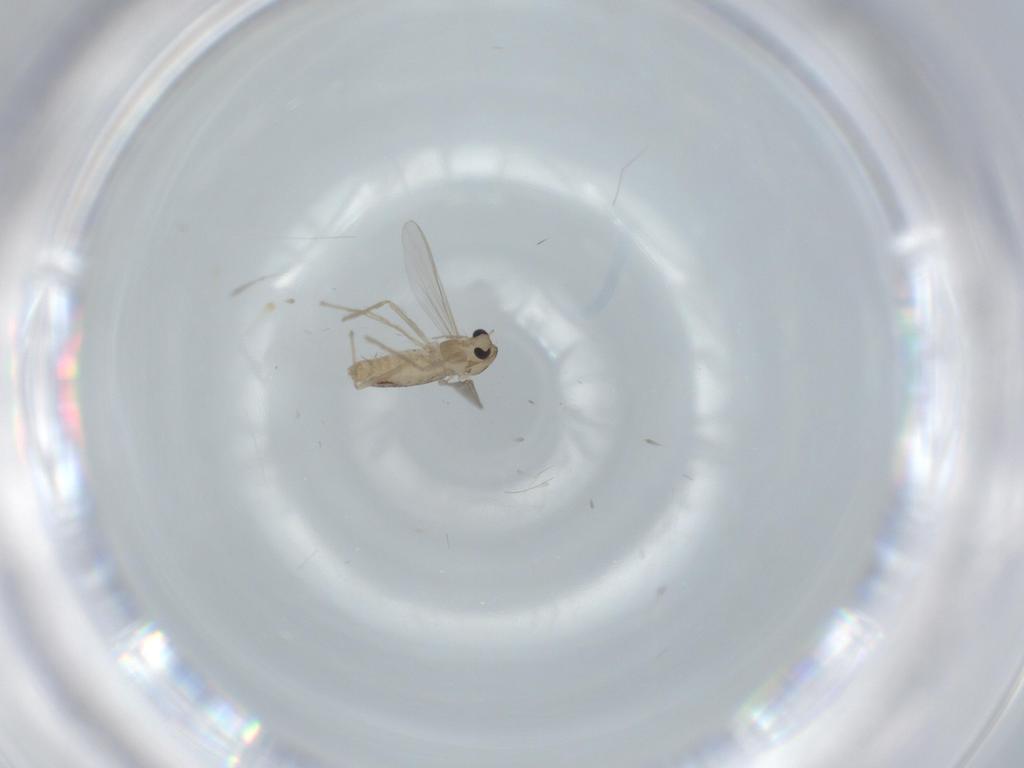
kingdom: Animalia
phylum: Arthropoda
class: Insecta
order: Diptera
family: Chironomidae
